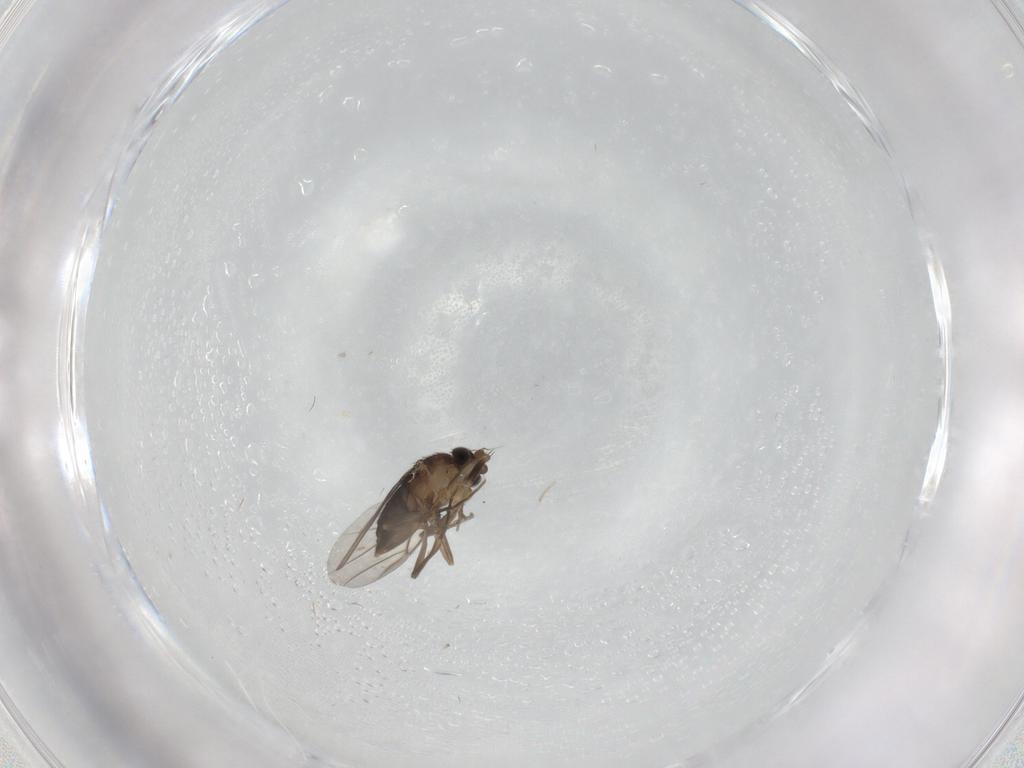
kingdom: Animalia
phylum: Arthropoda
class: Insecta
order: Diptera
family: Phoridae
